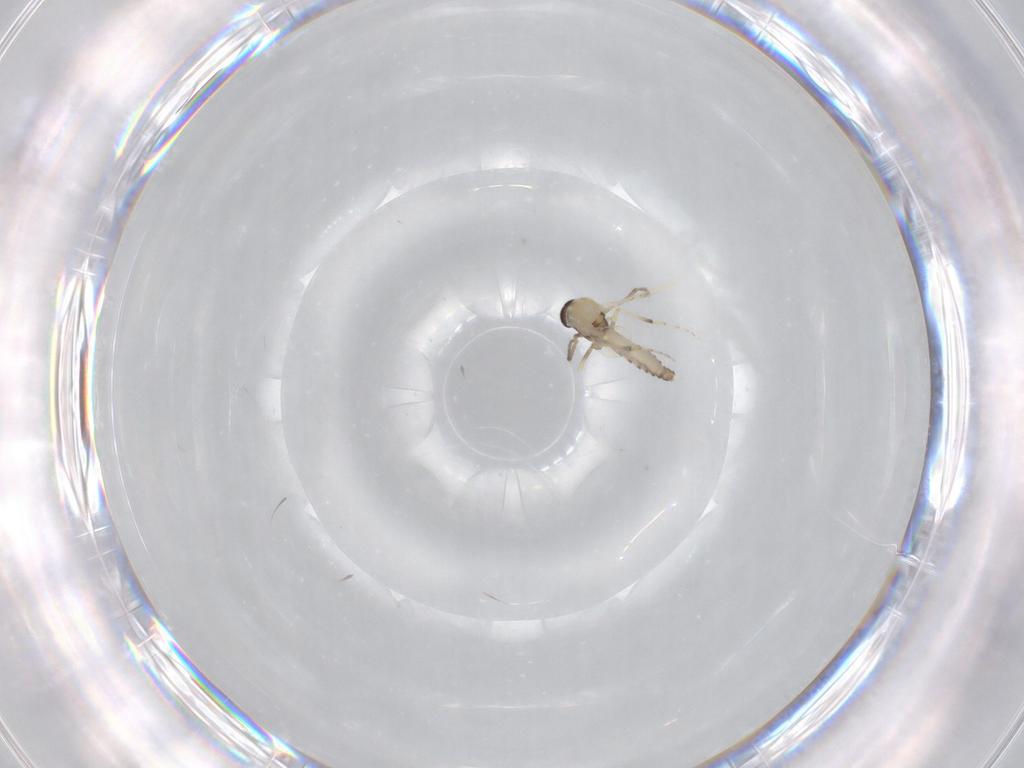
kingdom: Animalia
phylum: Arthropoda
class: Insecta
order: Diptera
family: Ceratopogonidae
